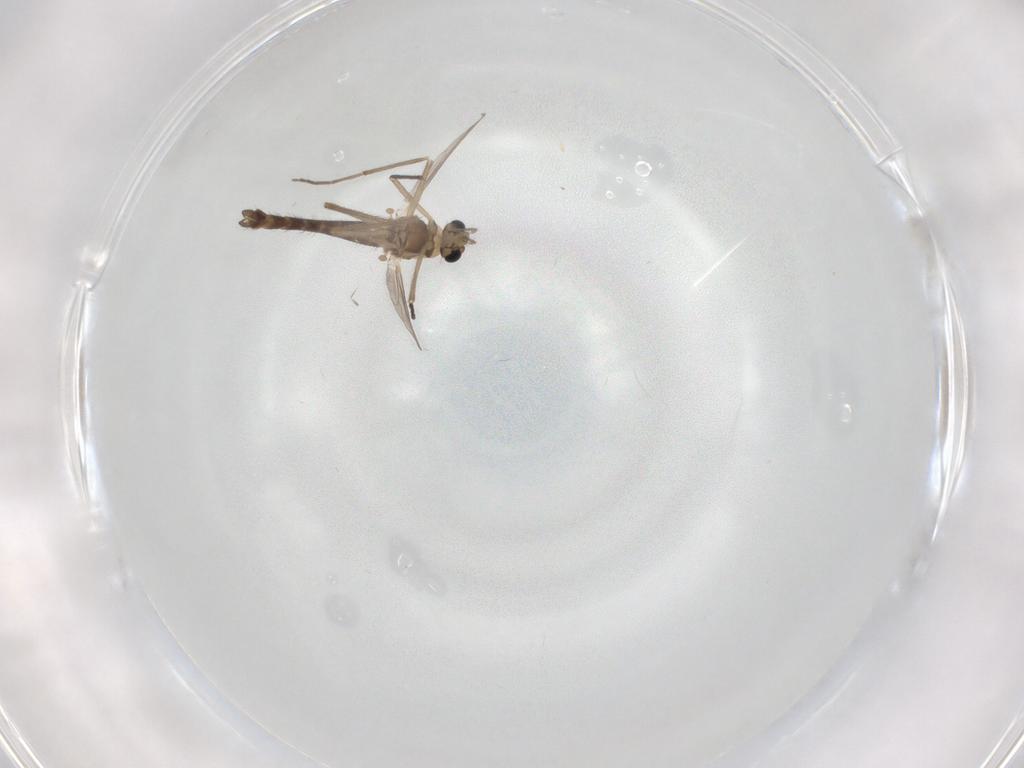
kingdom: Animalia
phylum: Arthropoda
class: Insecta
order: Diptera
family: Chironomidae
